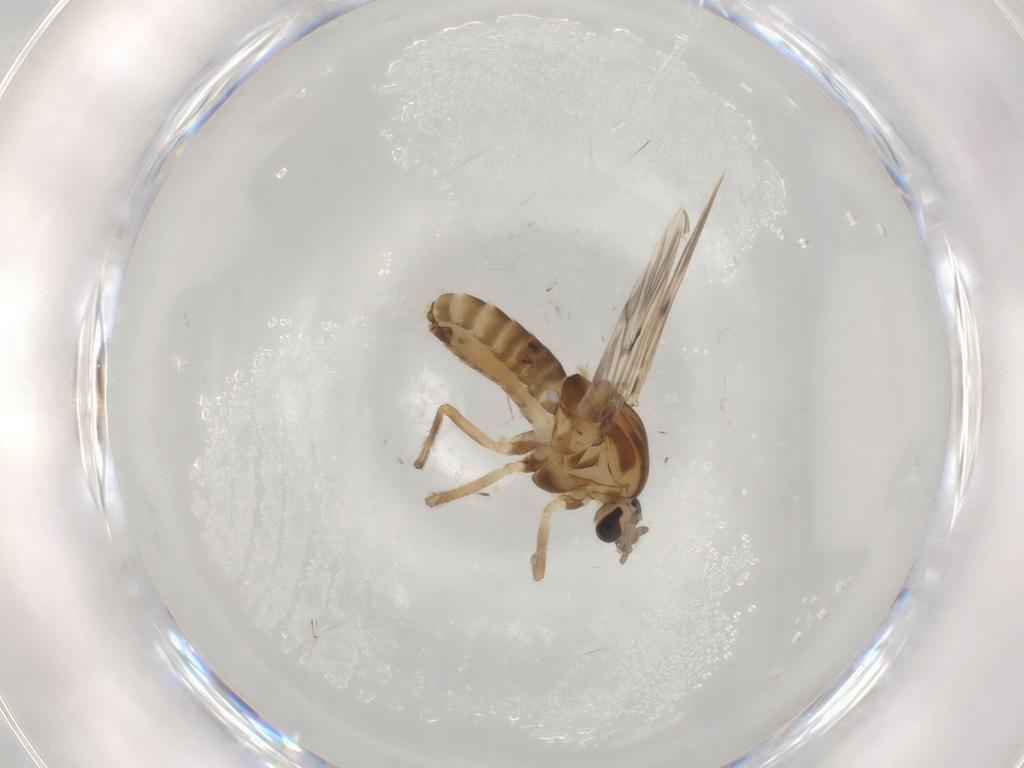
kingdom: Animalia
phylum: Arthropoda
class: Insecta
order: Diptera
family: Chironomidae
